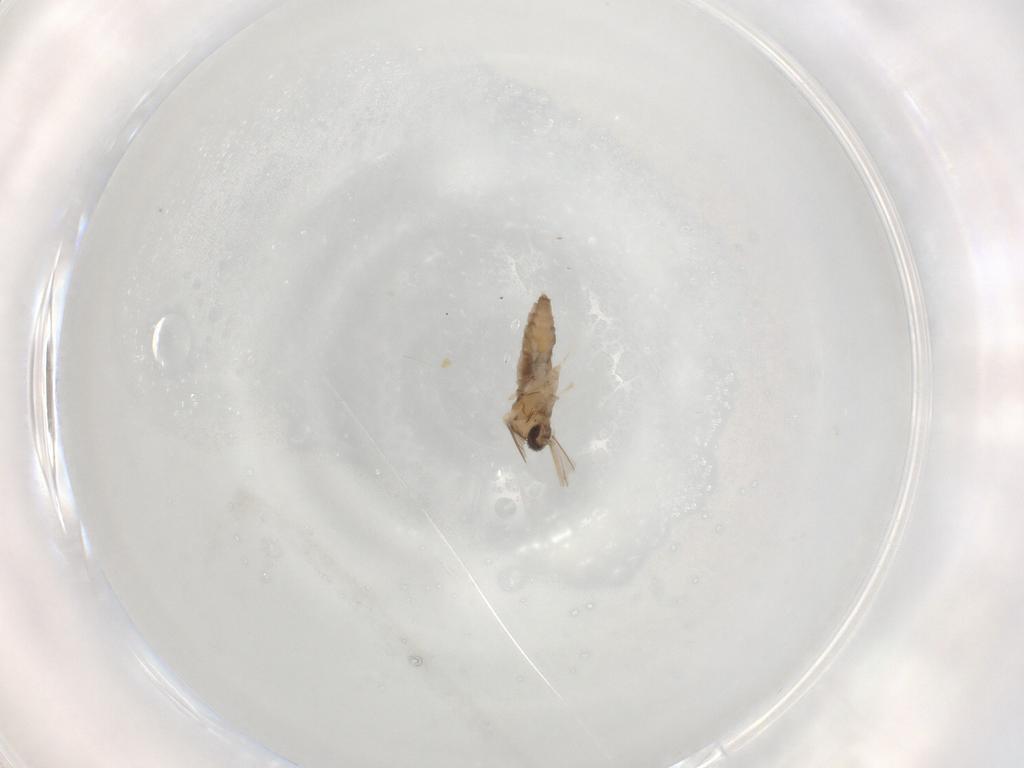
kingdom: Animalia
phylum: Arthropoda
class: Insecta
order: Diptera
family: Cecidomyiidae
